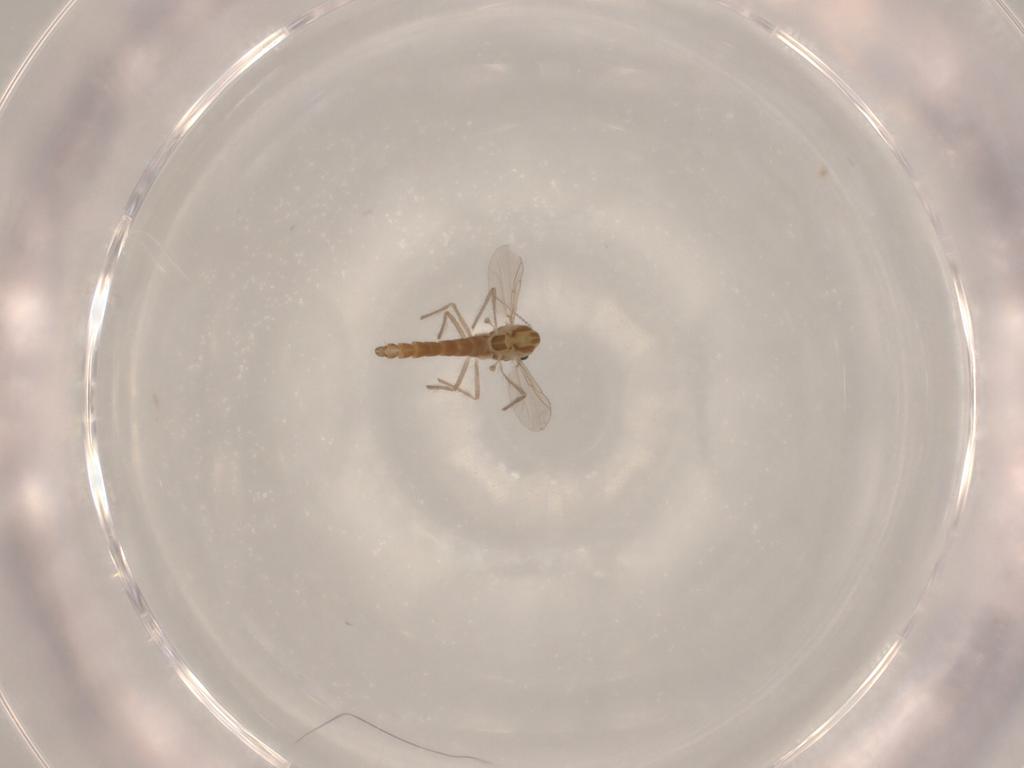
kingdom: Animalia
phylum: Arthropoda
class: Insecta
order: Diptera
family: Chironomidae
